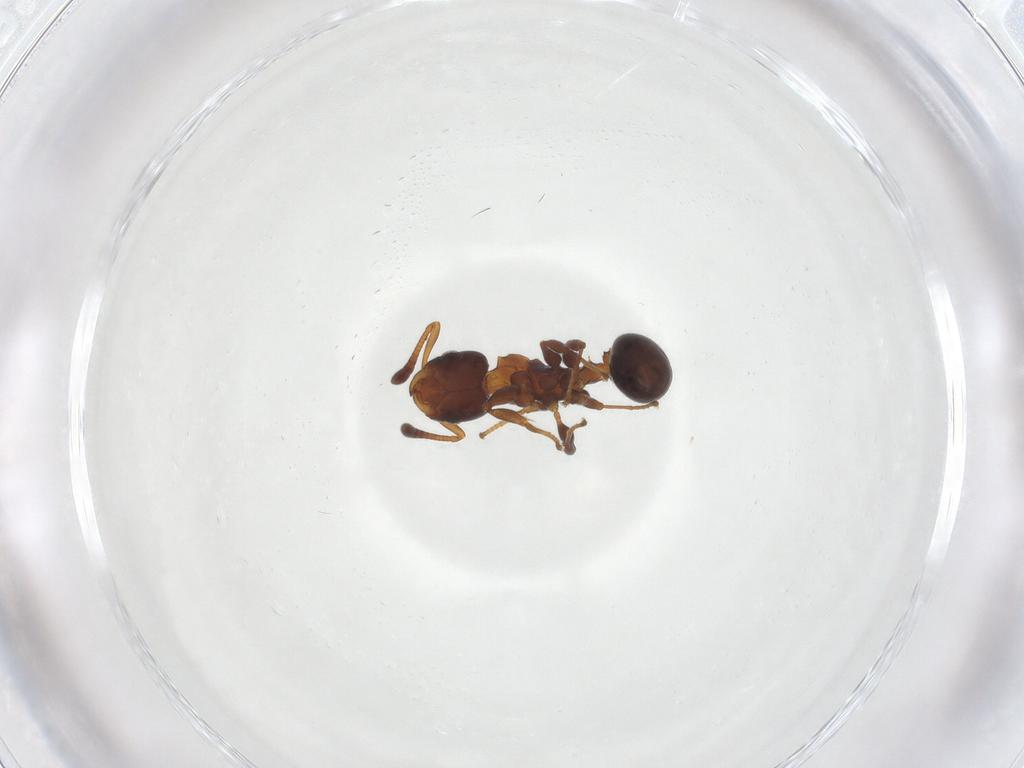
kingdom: Animalia
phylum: Arthropoda
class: Insecta
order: Hymenoptera
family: Formicidae
